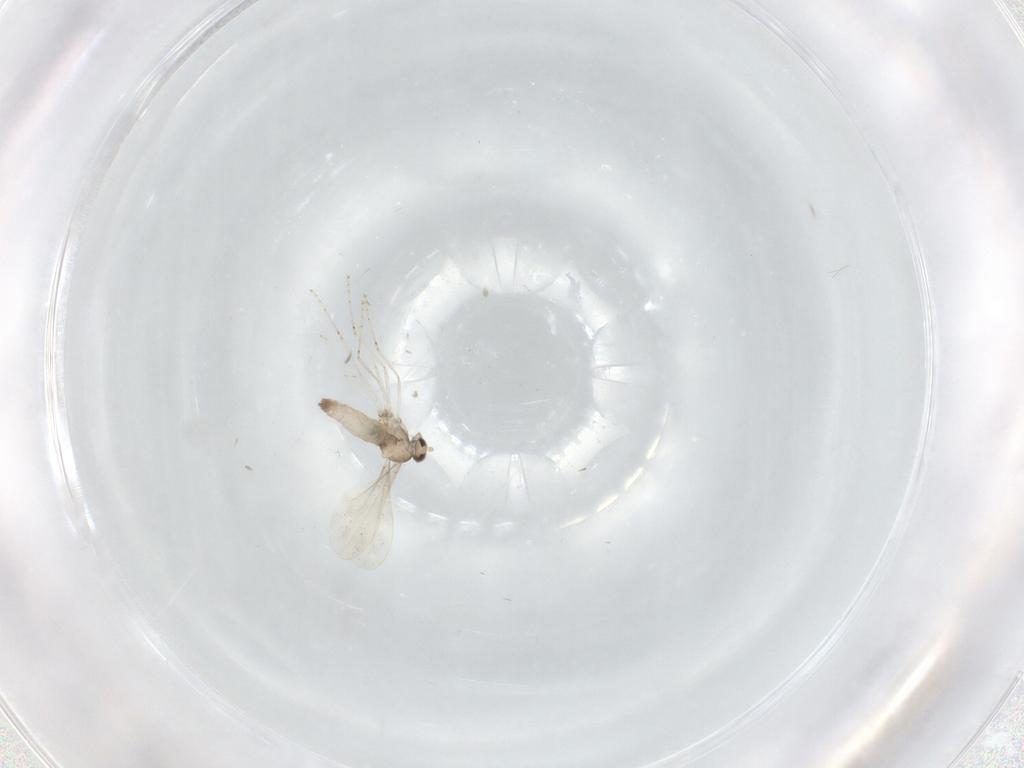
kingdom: Animalia
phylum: Arthropoda
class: Insecta
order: Diptera
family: Cecidomyiidae
